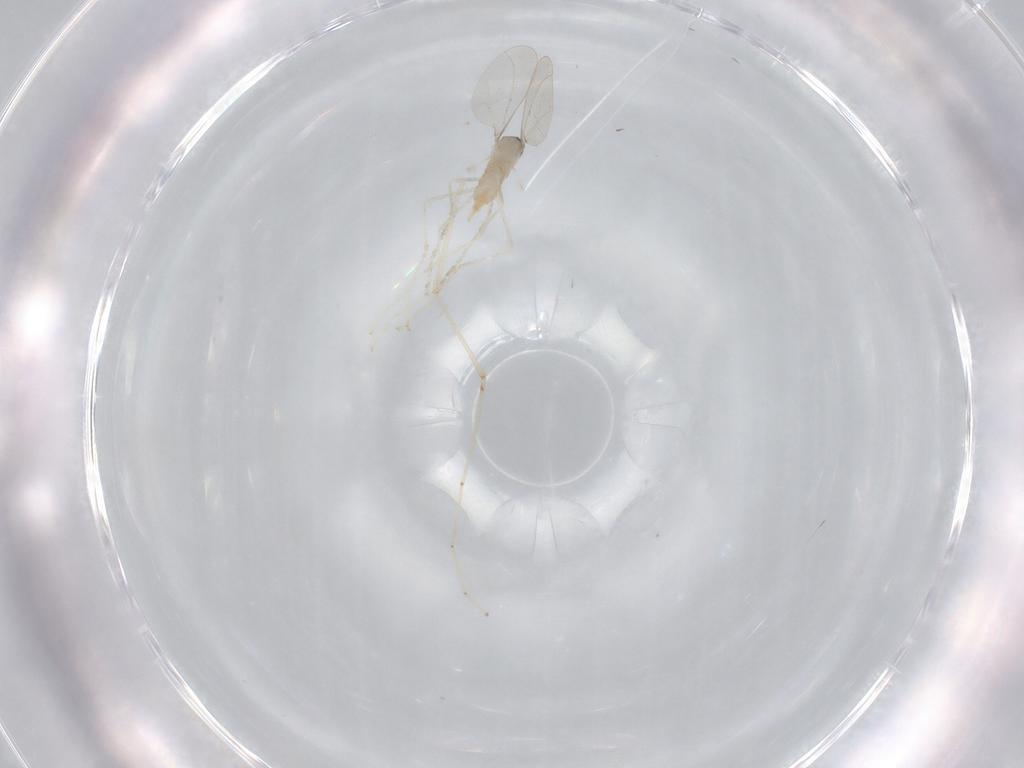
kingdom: Animalia
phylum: Arthropoda
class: Insecta
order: Diptera
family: Cecidomyiidae
